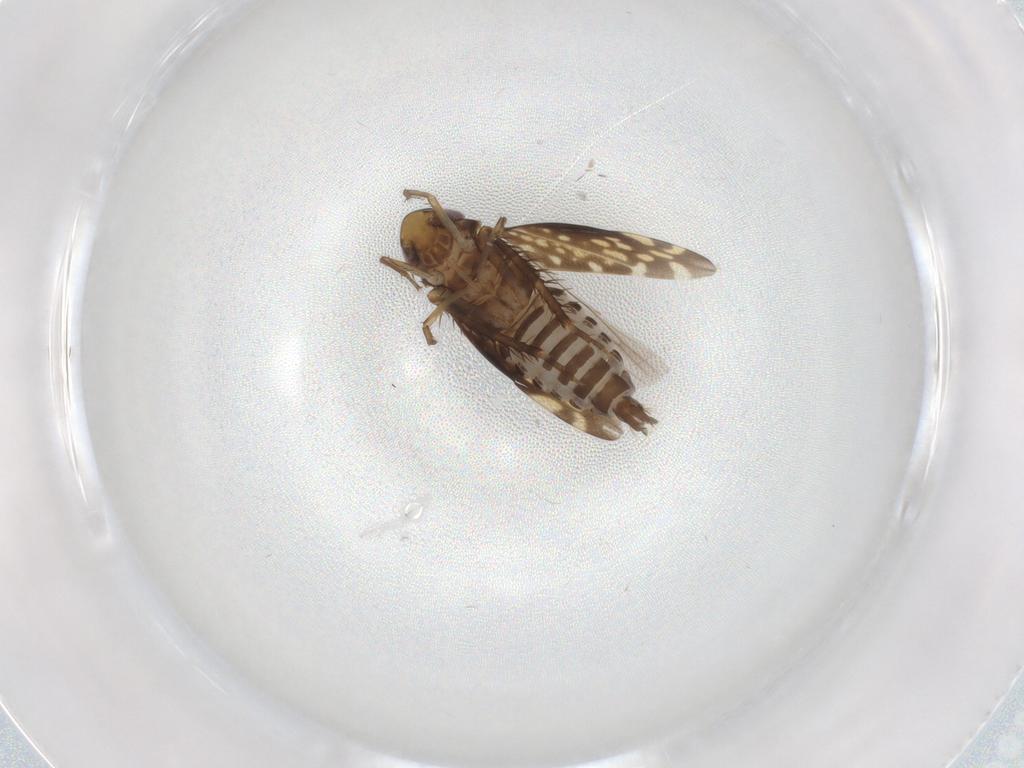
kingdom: Animalia
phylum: Arthropoda
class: Insecta
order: Hemiptera
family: Cicadellidae
